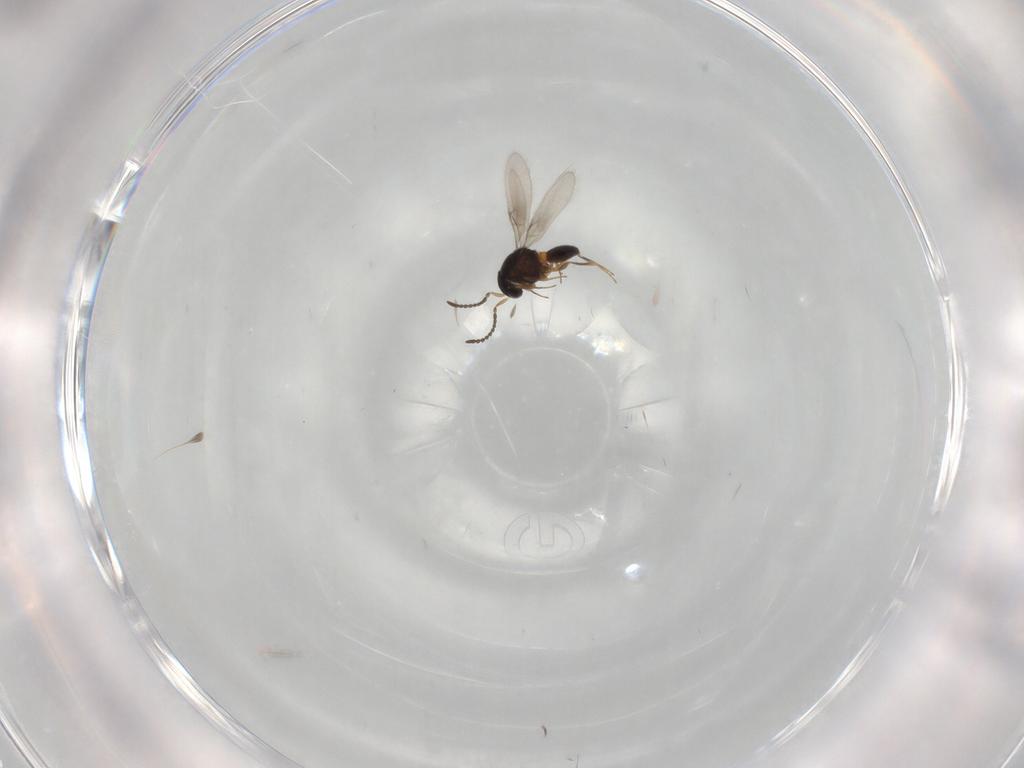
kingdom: Animalia
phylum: Arthropoda
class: Insecta
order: Hymenoptera
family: Scelionidae
